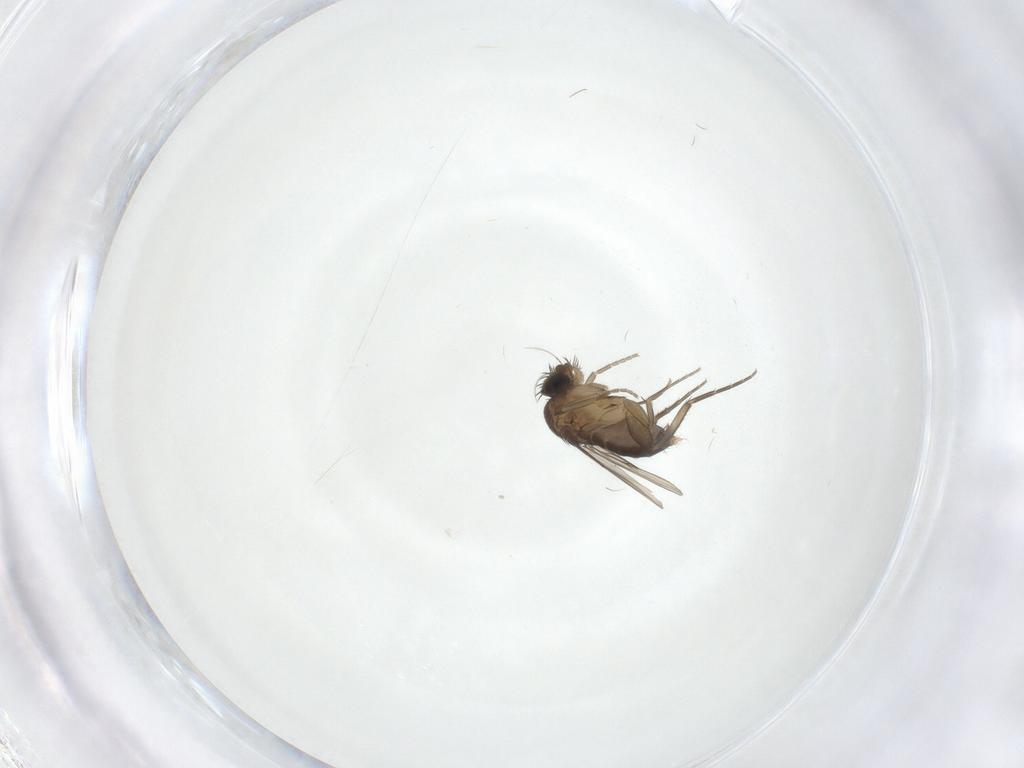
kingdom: Animalia
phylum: Arthropoda
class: Insecta
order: Diptera
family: Phoridae
